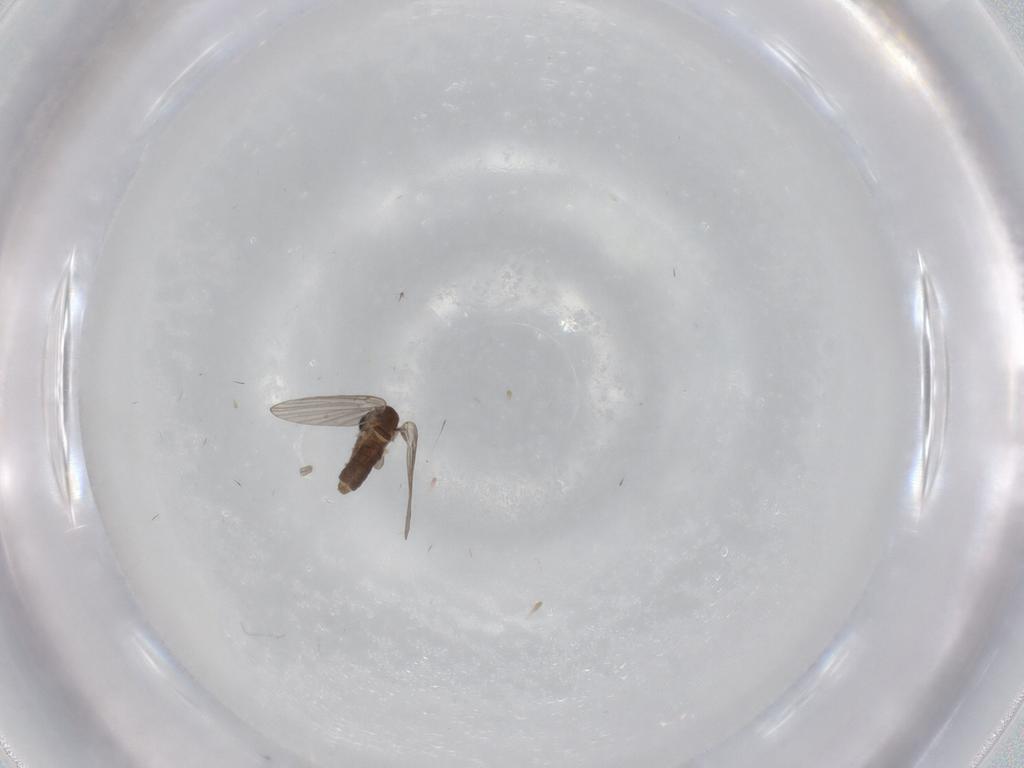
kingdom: Animalia
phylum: Arthropoda
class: Insecta
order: Diptera
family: Psychodidae
